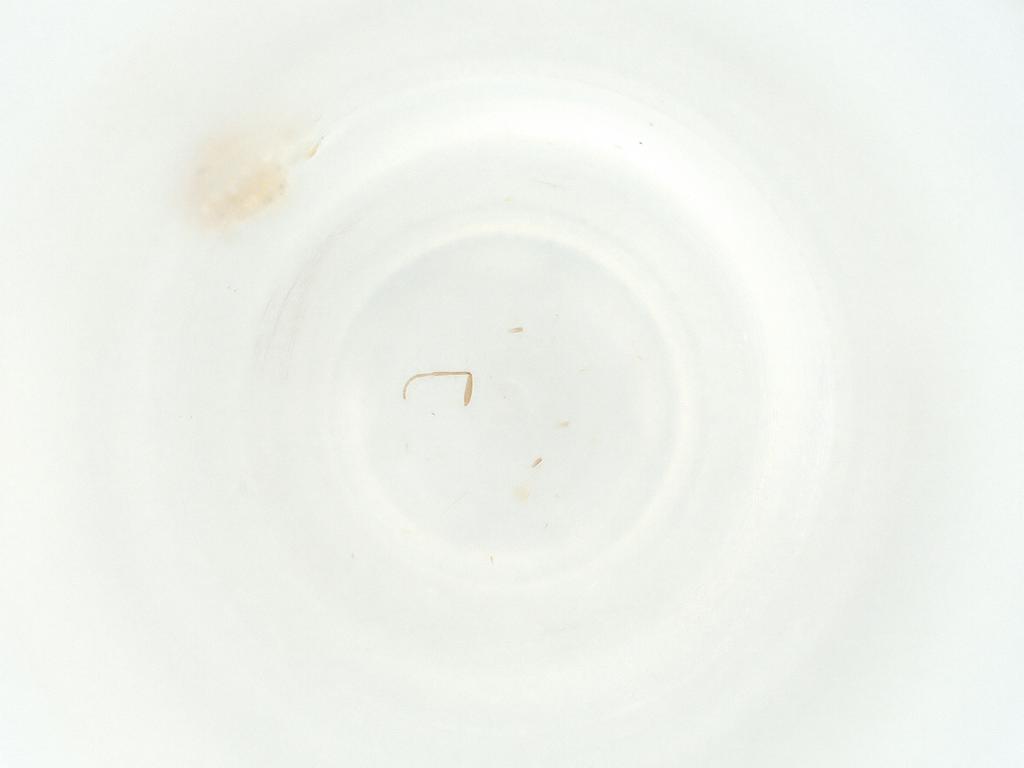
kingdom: Animalia
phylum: Arthropoda
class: Insecta
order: Diptera
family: Cecidomyiidae
